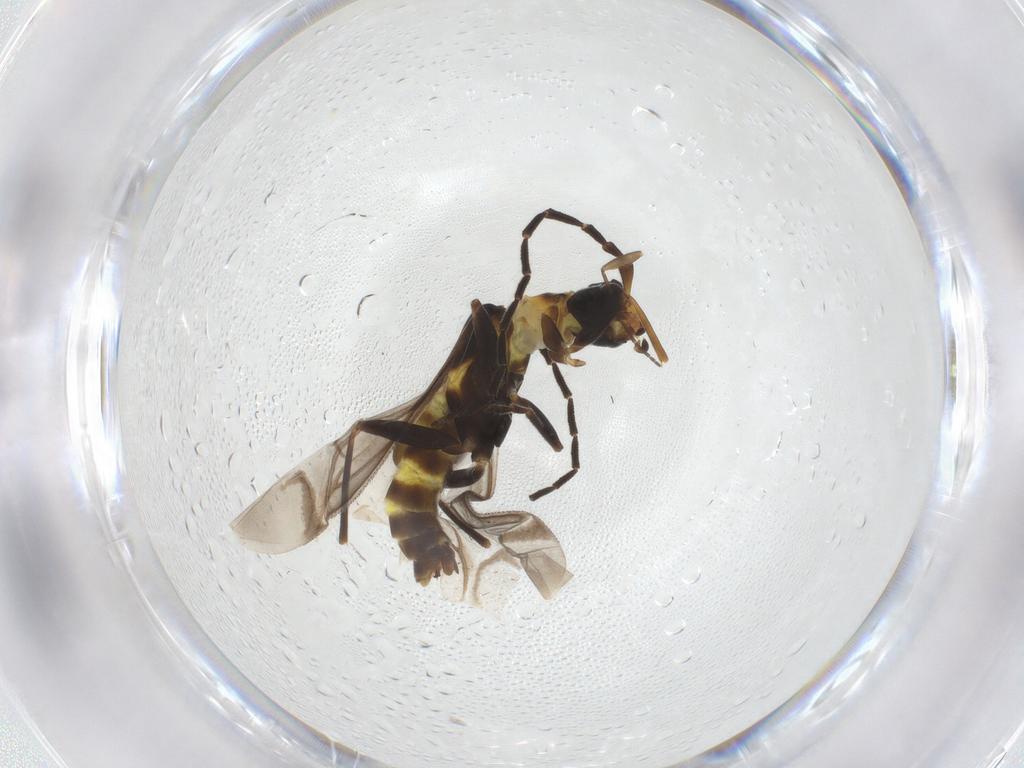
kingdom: Animalia
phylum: Arthropoda
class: Insecta
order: Coleoptera
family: Cantharidae
